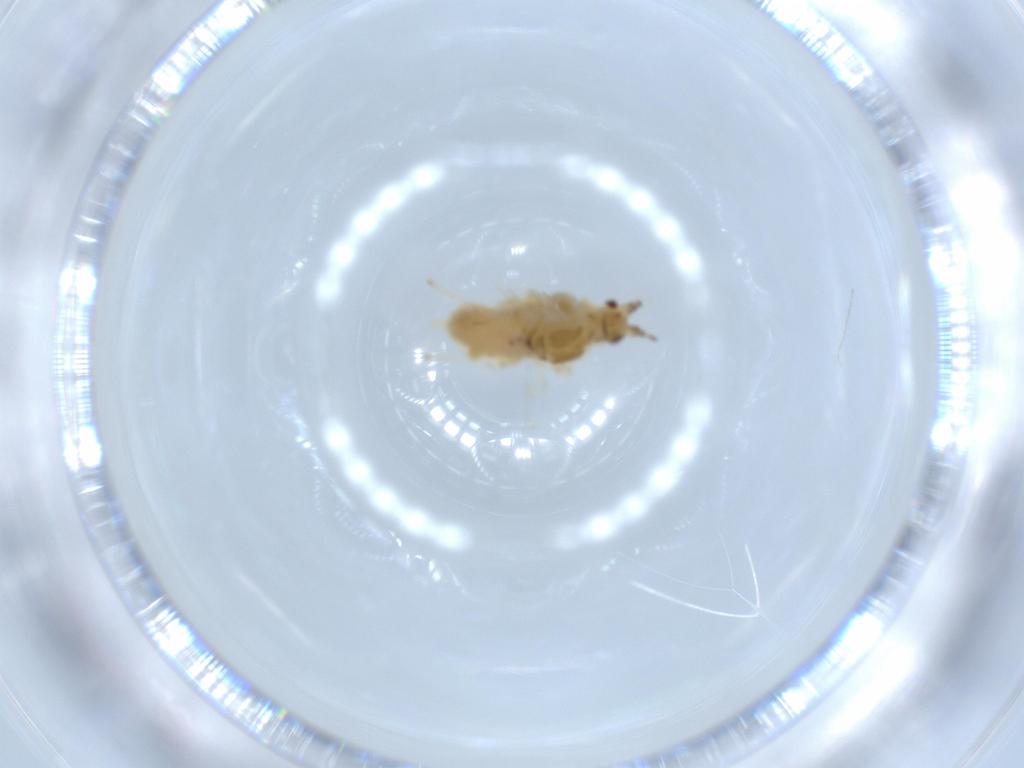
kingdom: Animalia
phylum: Arthropoda
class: Insecta
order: Hemiptera
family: Aphididae
